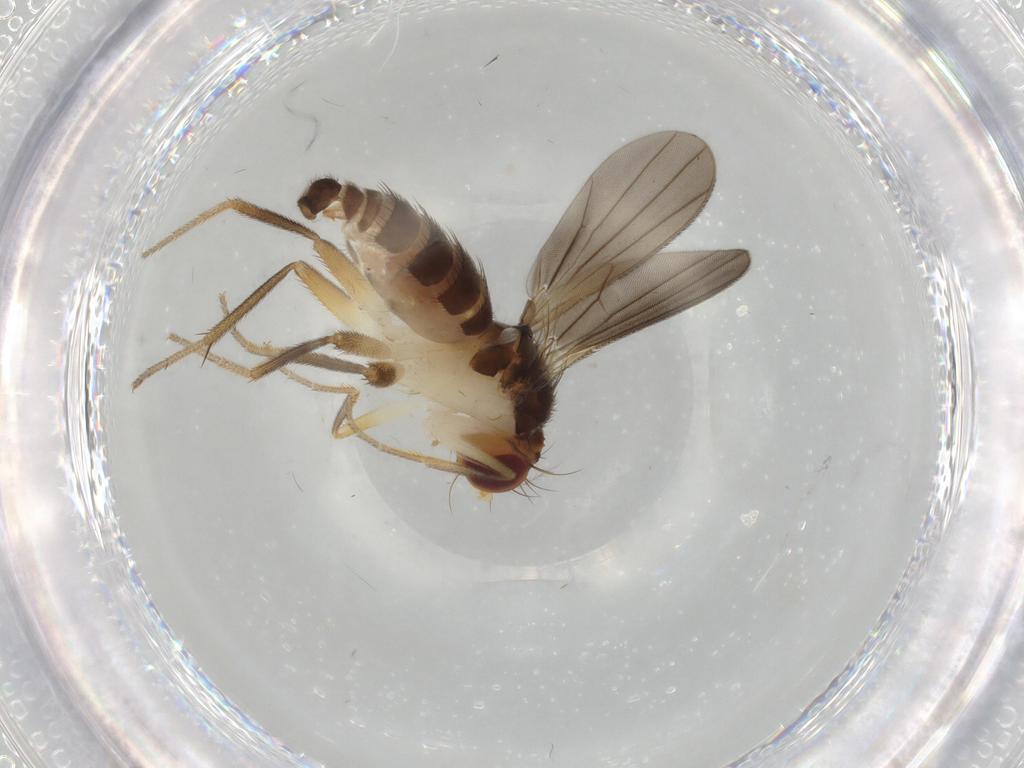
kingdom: Animalia
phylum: Arthropoda
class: Insecta
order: Diptera
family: Clusiidae
